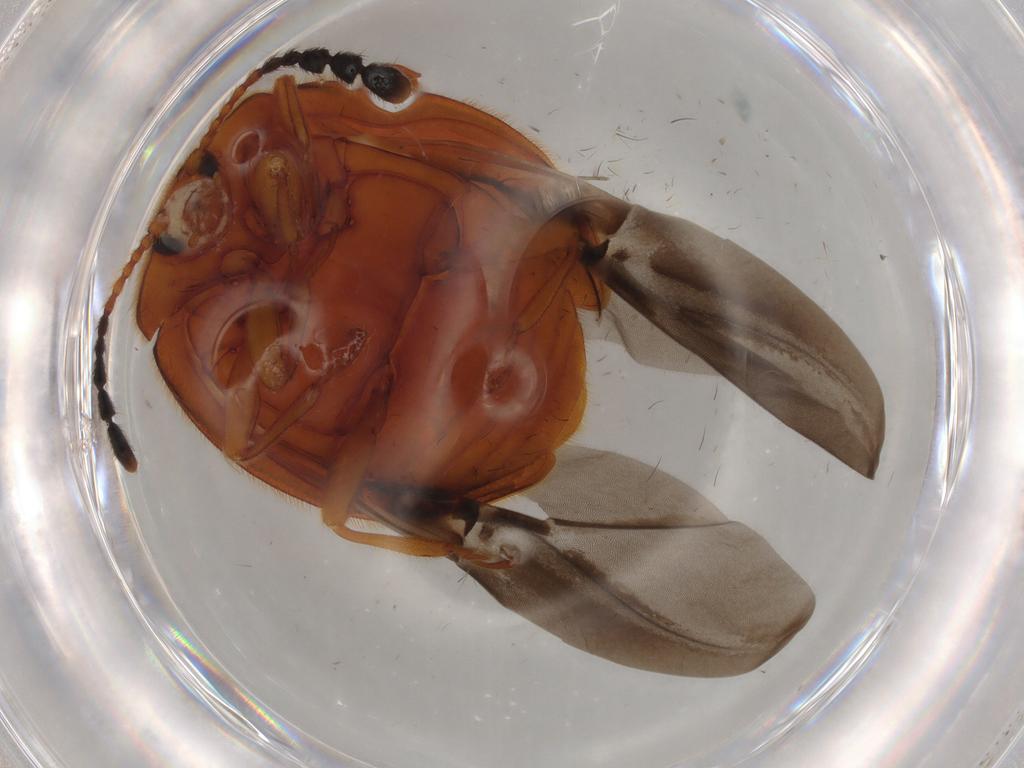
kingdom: Animalia
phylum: Arthropoda
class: Insecta
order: Coleoptera
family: Endomychidae
